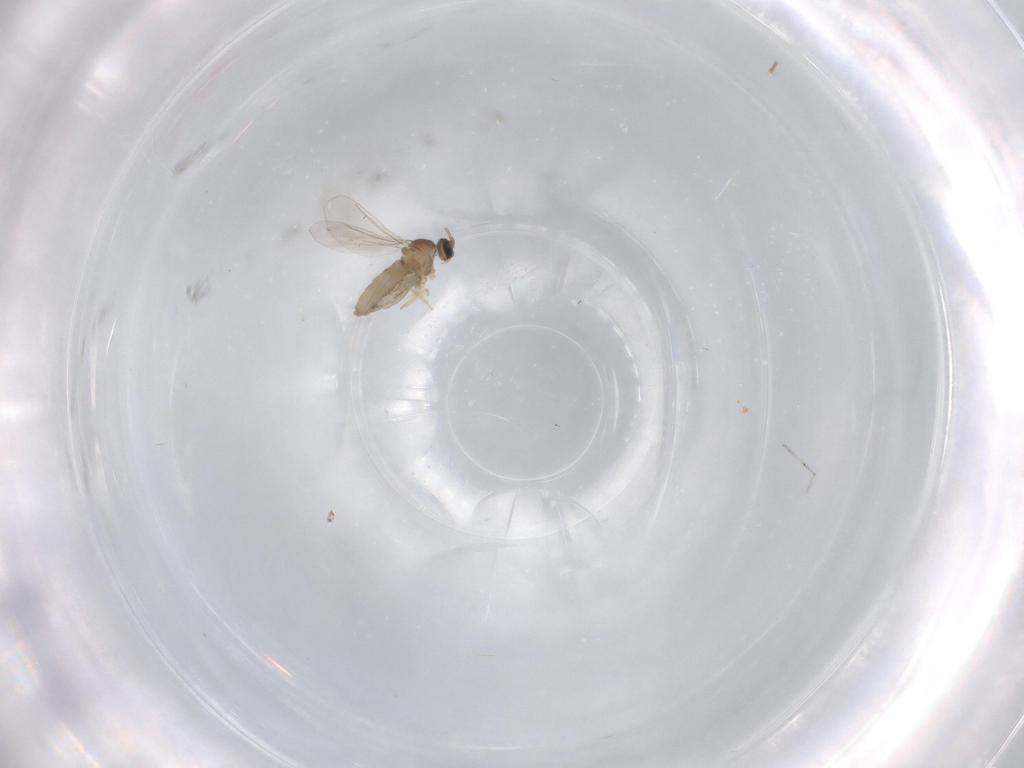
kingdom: Animalia
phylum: Arthropoda
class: Insecta
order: Diptera
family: Cecidomyiidae
